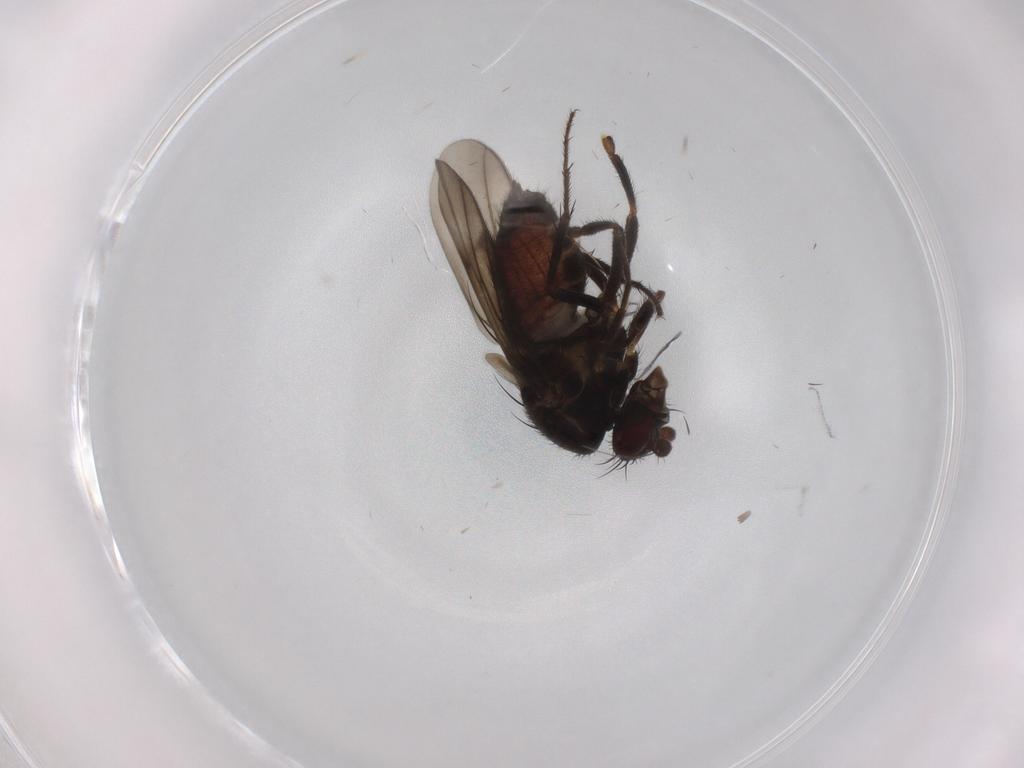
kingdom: Animalia
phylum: Arthropoda
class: Insecta
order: Diptera
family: Sphaeroceridae
